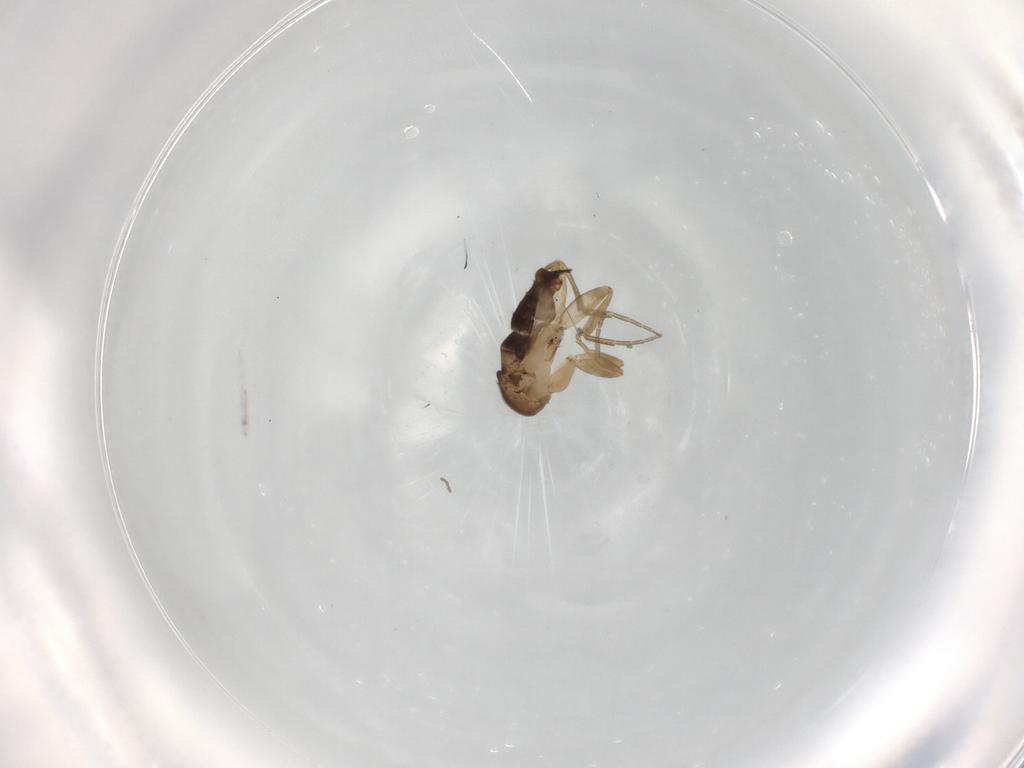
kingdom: Animalia
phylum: Arthropoda
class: Insecta
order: Diptera
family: Phoridae
